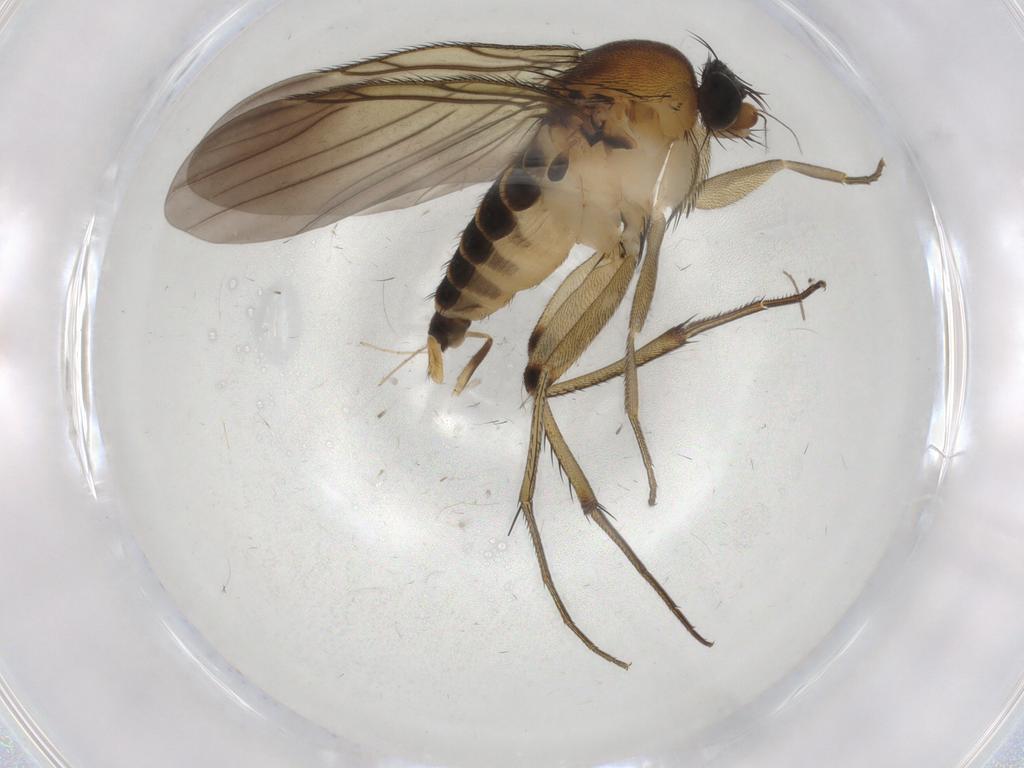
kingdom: Animalia
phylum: Arthropoda
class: Insecta
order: Diptera
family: Phoridae
